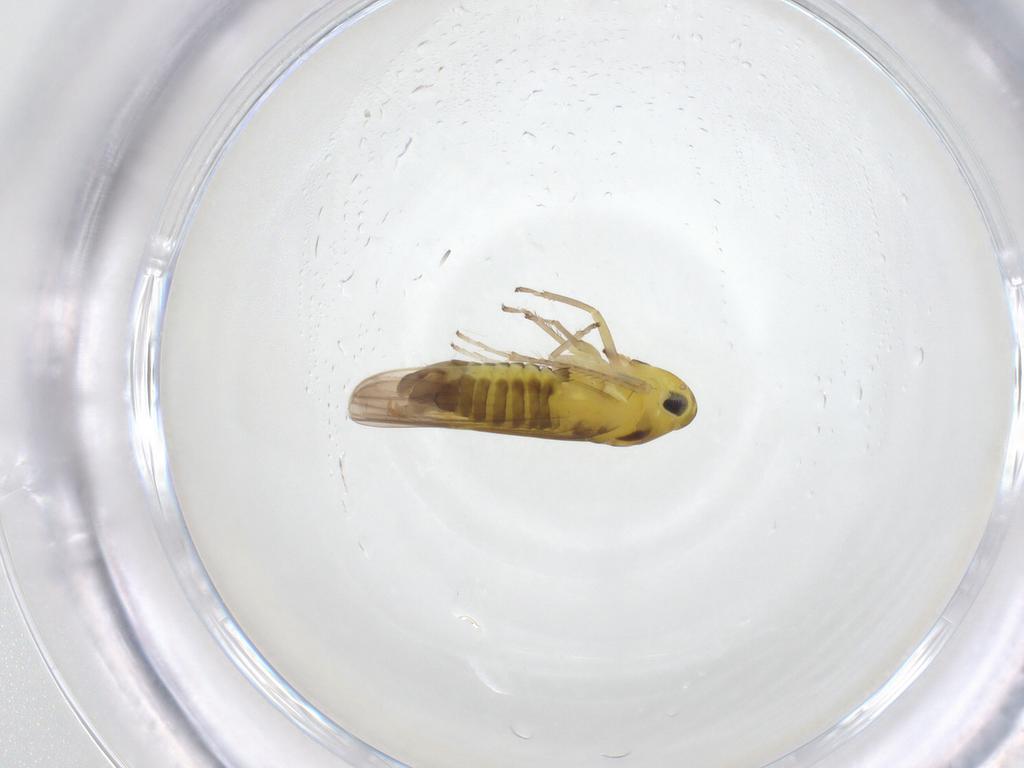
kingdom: Animalia
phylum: Arthropoda
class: Insecta
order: Hemiptera
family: Cicadellidae
